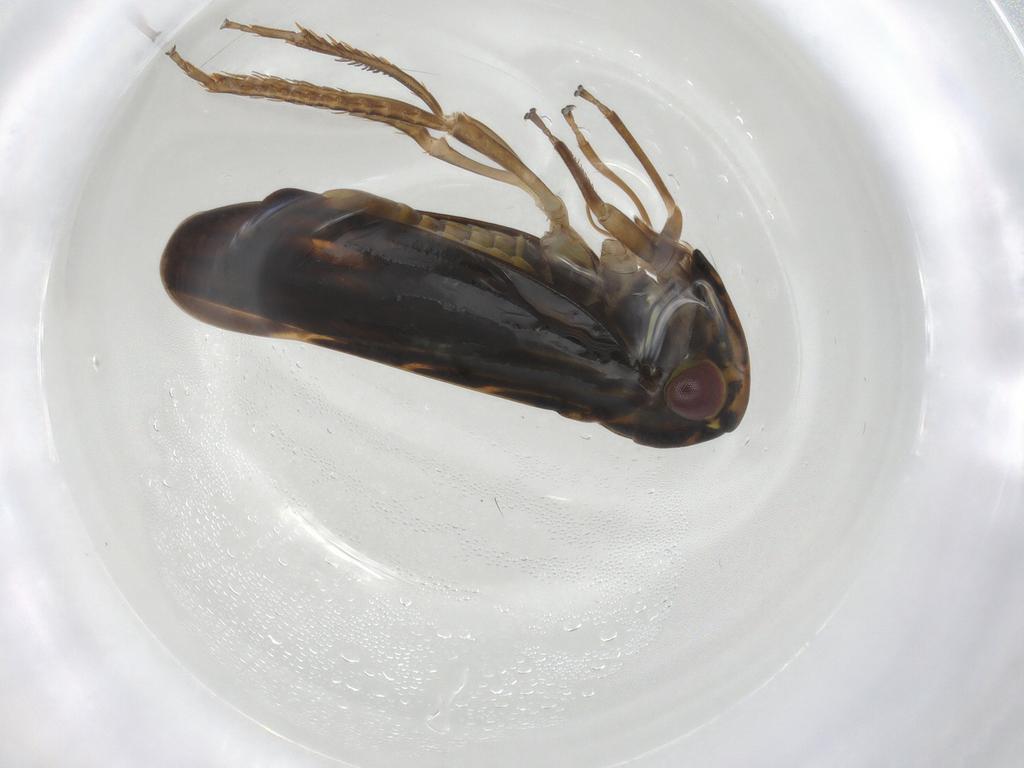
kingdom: Animalia
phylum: Arthropoda
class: Insecta
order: Hemiptera
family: Cicadellidae
